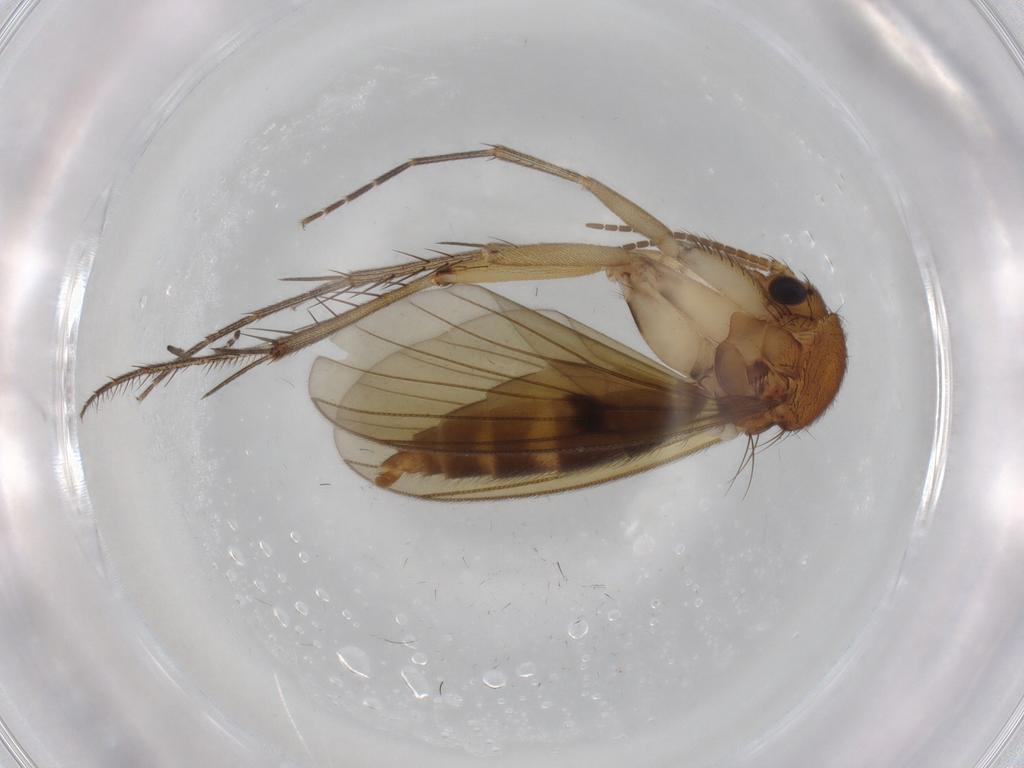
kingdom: Animalia
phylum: Arthropoda
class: Insecta
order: Diptera
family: Mycetophilidae
